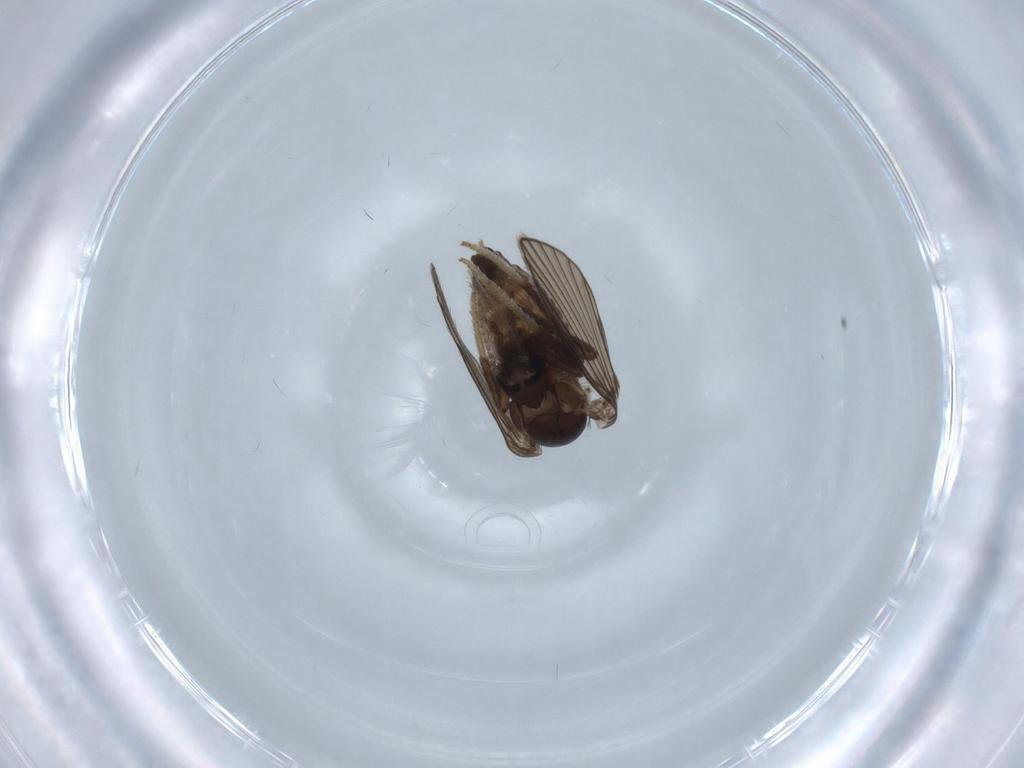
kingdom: Animalia
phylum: Arthropoda
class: Insecta
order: Diptera
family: Psychodidae
